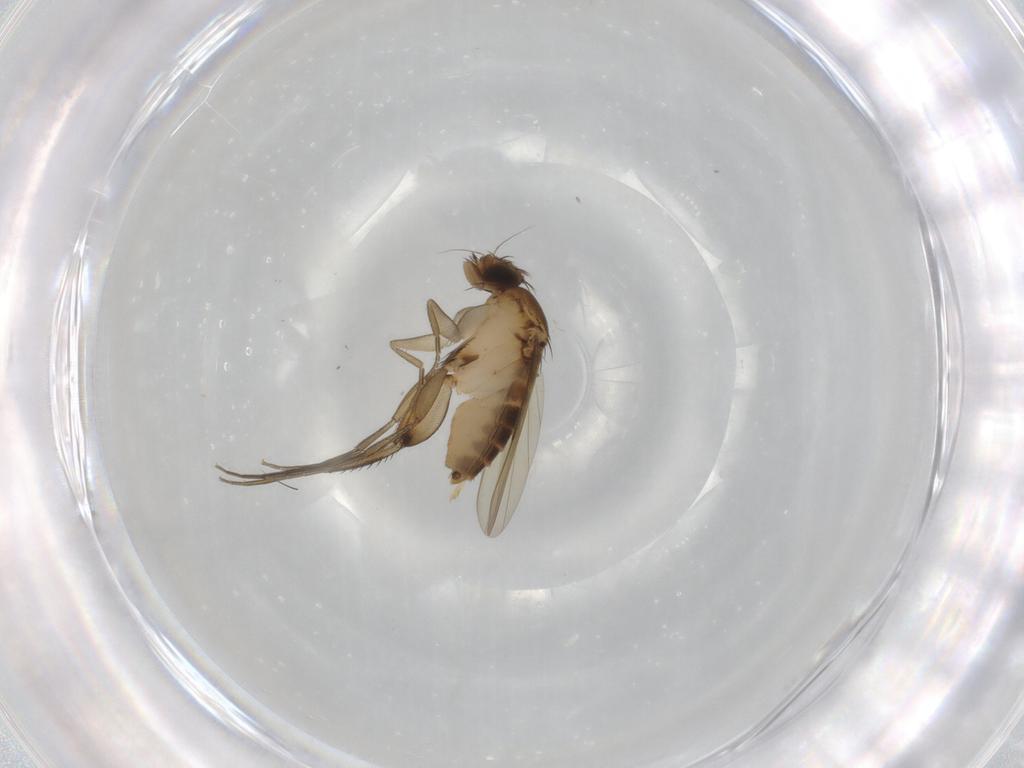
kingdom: Animalia
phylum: Arthropoda
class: Insecta
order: Diptera
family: Phoridae
